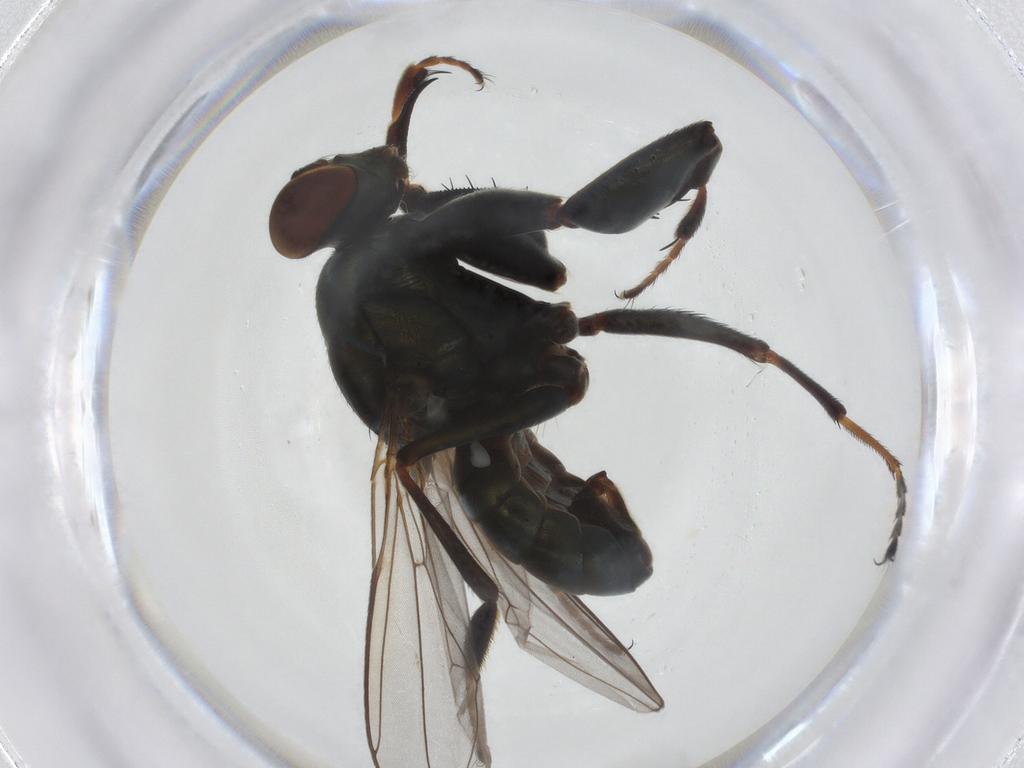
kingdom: Animalia
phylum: Arthropoda
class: Insecta
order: Diptera
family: Ephydridae
